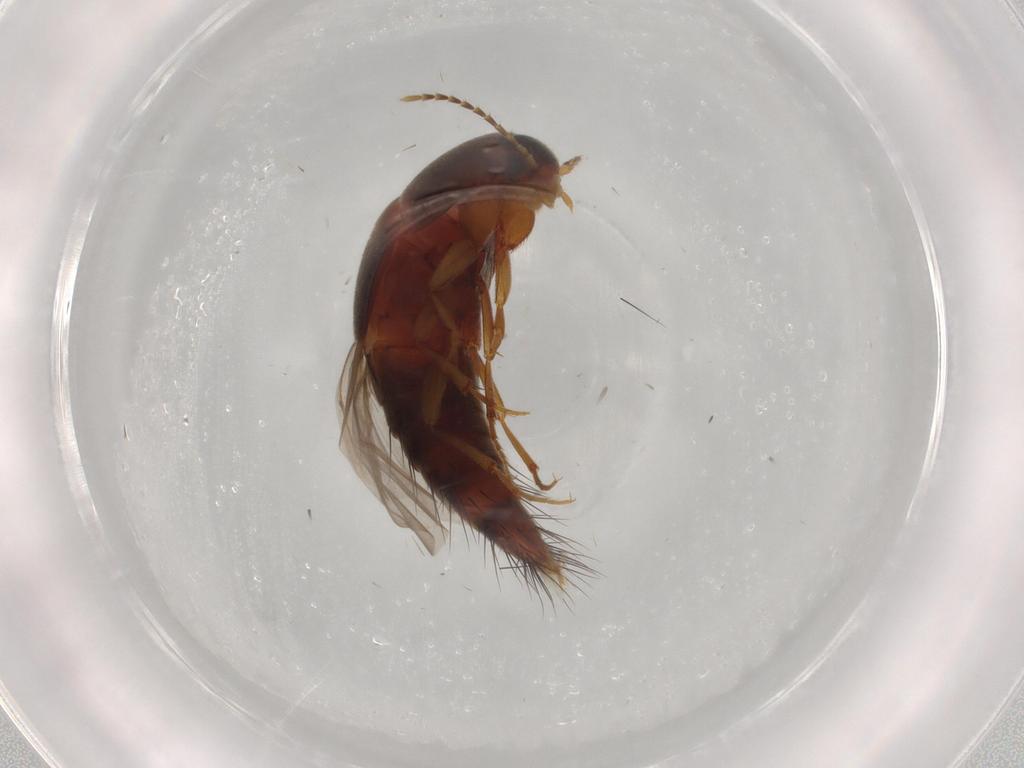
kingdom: Animalia
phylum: Arthropoda
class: Insecta
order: Coleoptera
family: Staphylinidae
